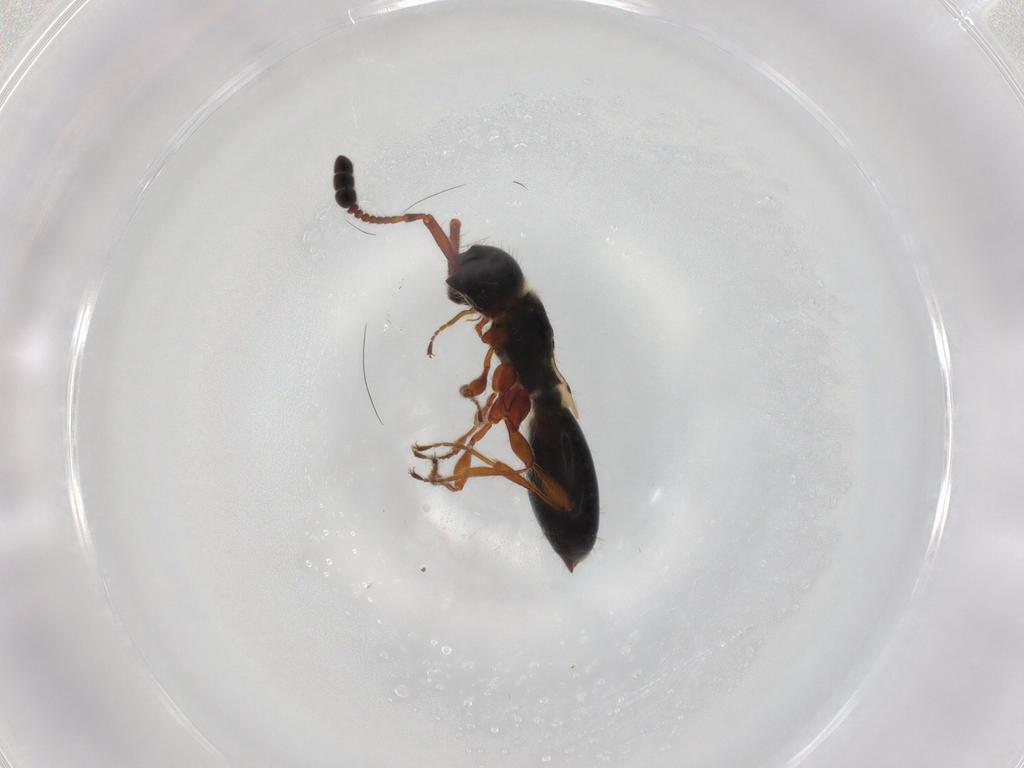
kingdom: Animalia
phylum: Arthropoda
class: Insecta
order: Hymenoptera
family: Diapriidae
